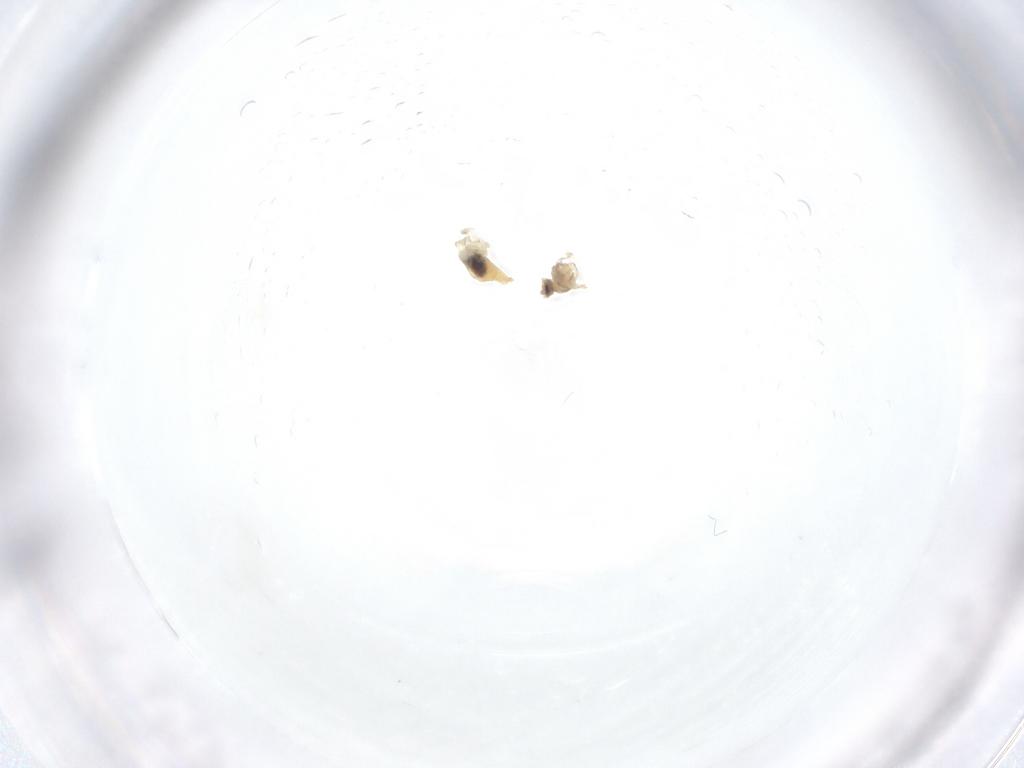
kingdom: Animalia
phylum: Arthropoda
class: Insecta
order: Diptera
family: Cecidomyiidae
